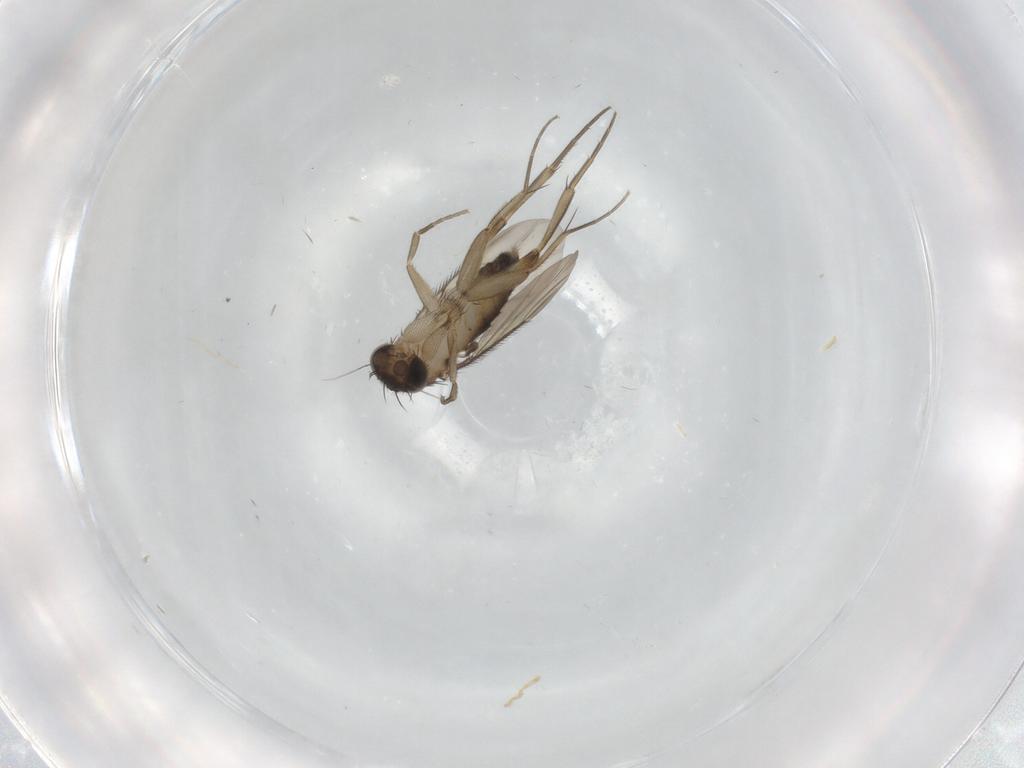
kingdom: Animalia
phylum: Arthropoda
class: Insecta
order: Diptera
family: Phoridae
